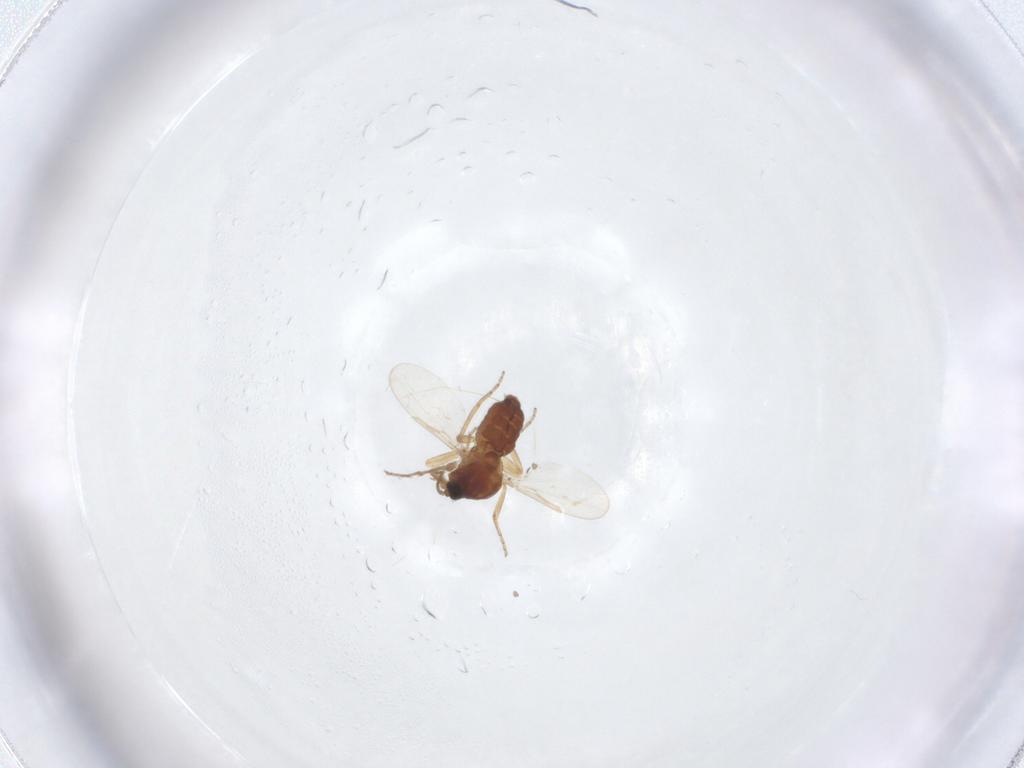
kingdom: Animalia
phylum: Arthropoda
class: Insecta
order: Diptera
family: Ceratopogonidae
